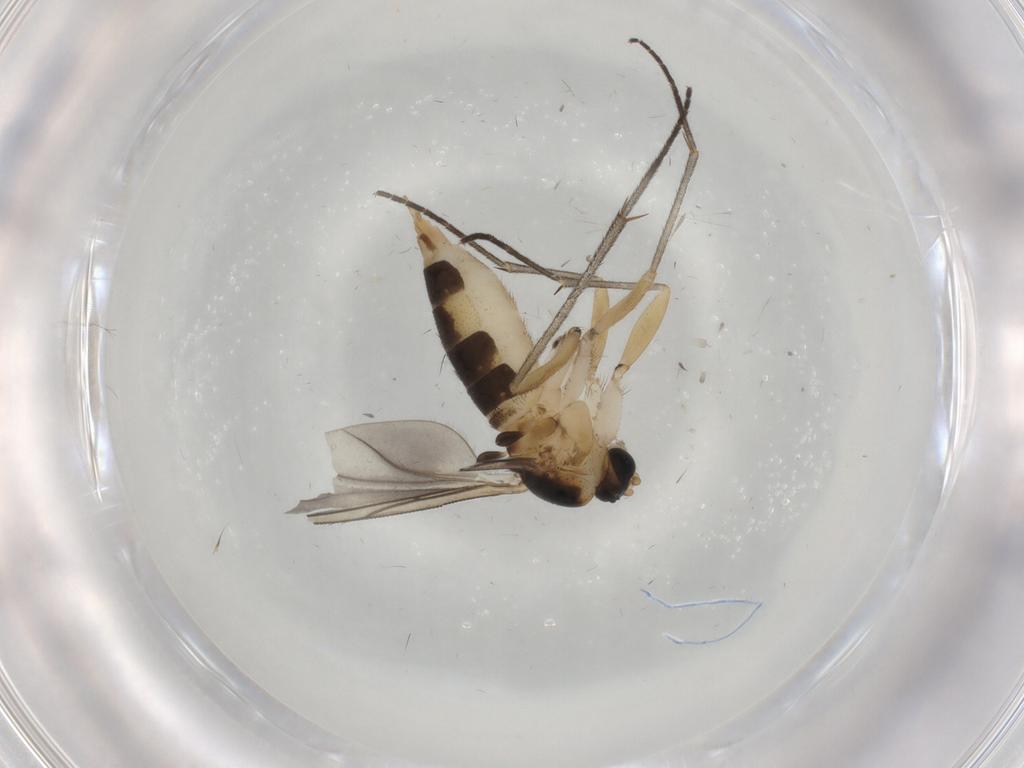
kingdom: Animalia
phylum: Arthropoda
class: Insecta
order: Diptera
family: Sciaridae
